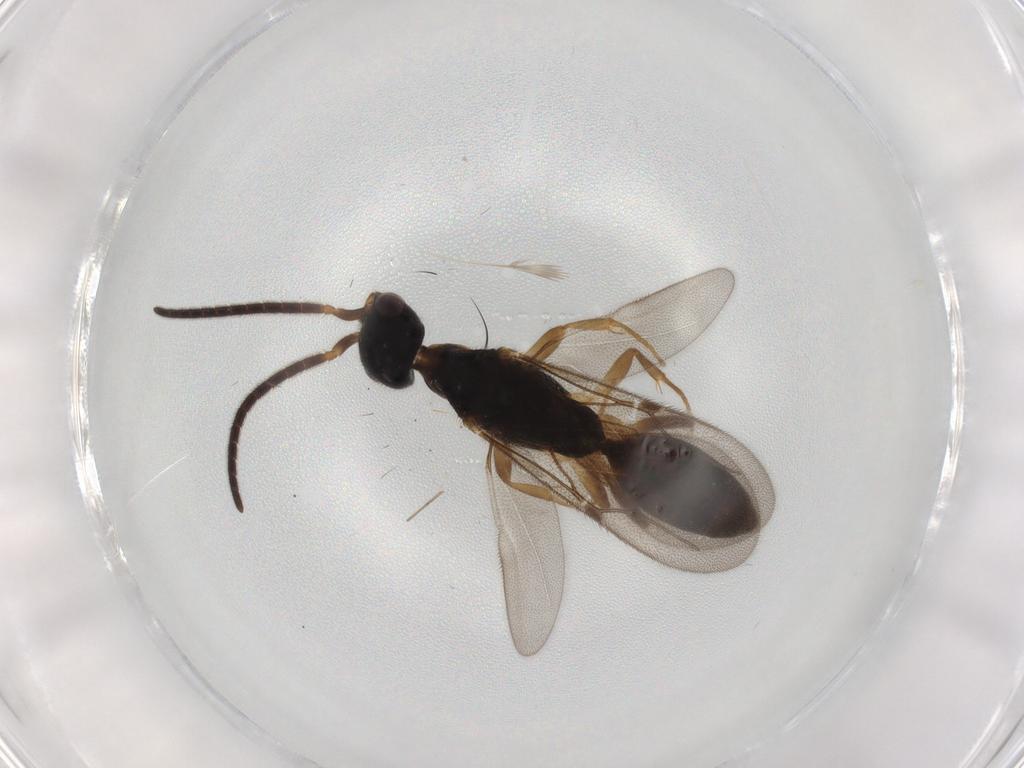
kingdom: Animalia
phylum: Arthropoda
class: Insecta
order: Hymenoptera
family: Bethylidae
